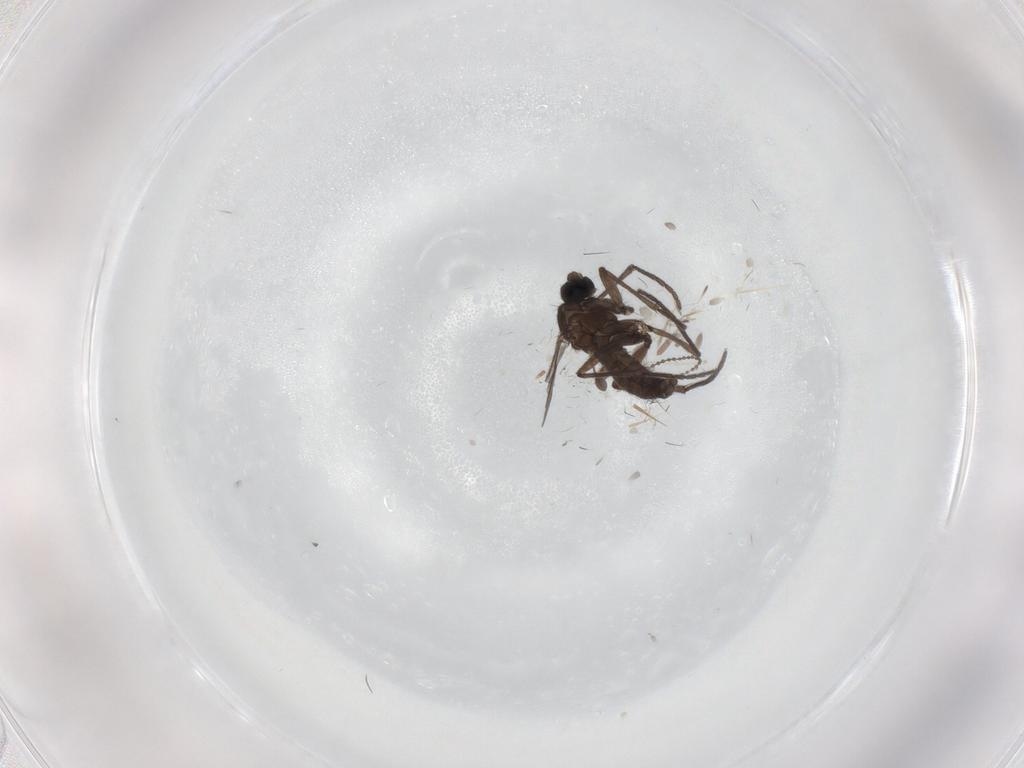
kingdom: Animalia
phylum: Arthropoda
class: Insecta
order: Diptera
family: Sciaridae
